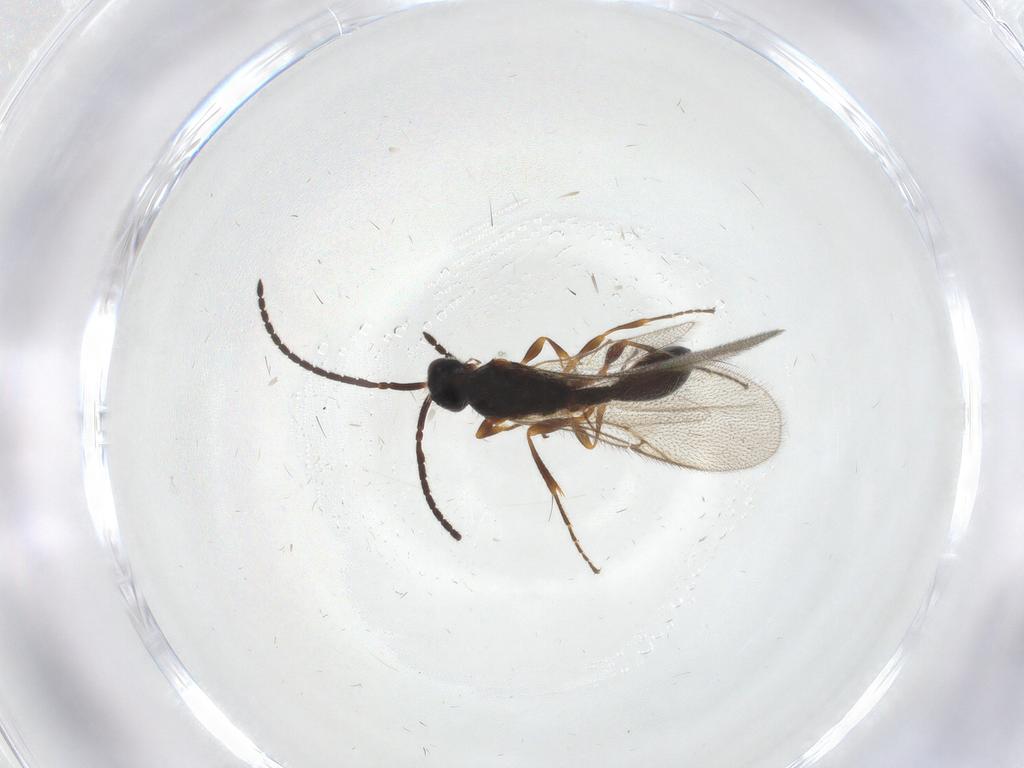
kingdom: Animalia
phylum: Arthropoda
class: Insecta
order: Hymenoptera
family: Diapriidae
